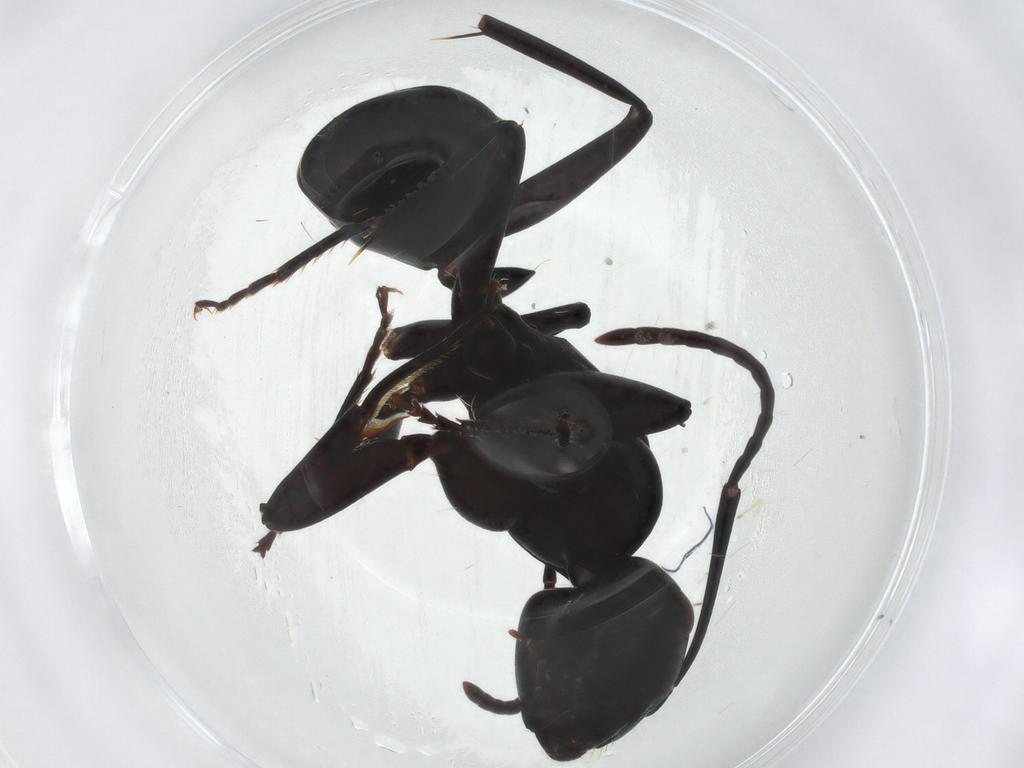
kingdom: Animalia
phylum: Arthropoda
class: Insecta
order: Hymenoptera
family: Formicidae
